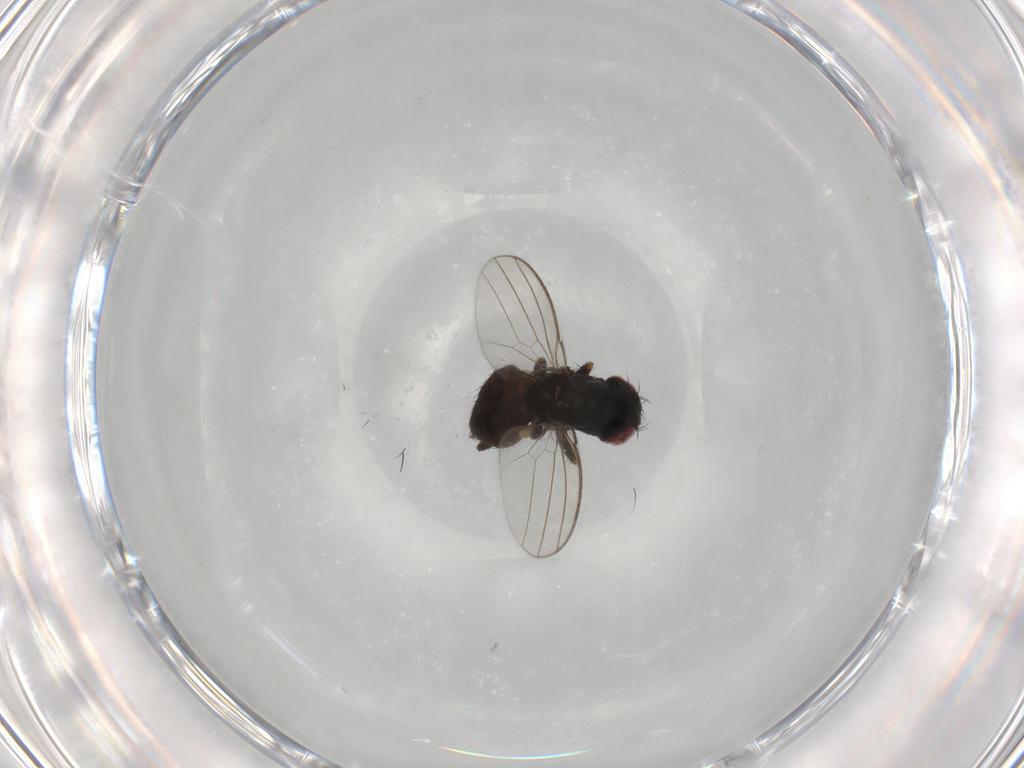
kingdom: Animalia
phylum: Arthropoda
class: Insecta
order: Diptera
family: Milichiidae
